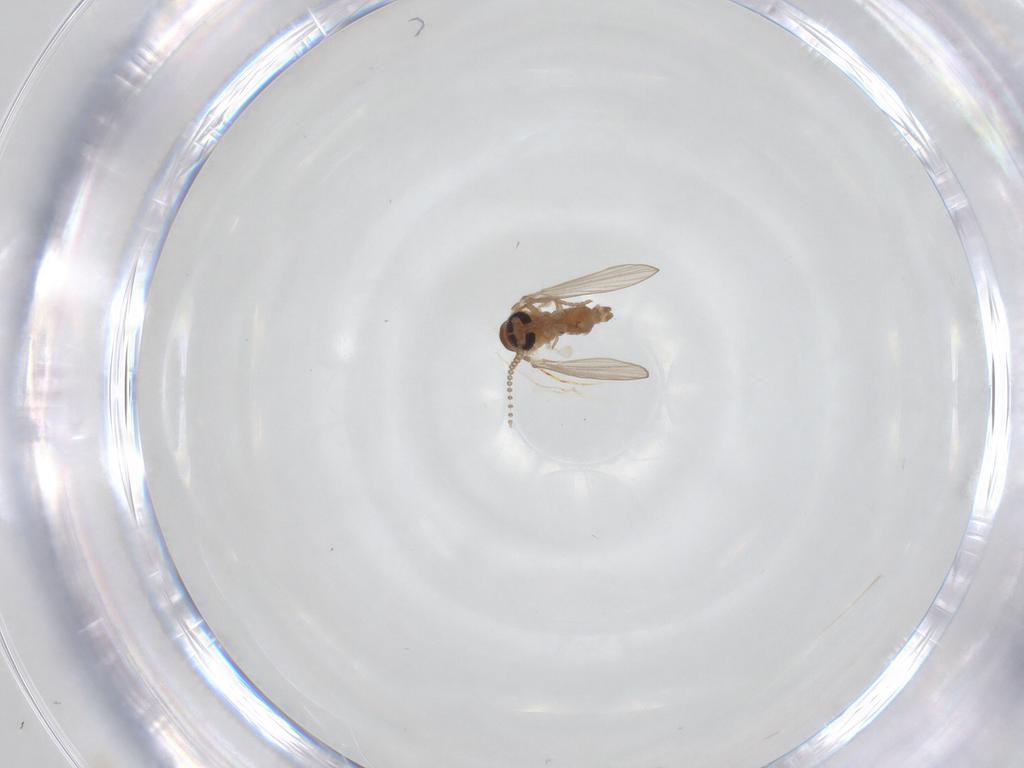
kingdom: Animalia
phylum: Arthropoda
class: Insecta
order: Diptera
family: Psychodidae
